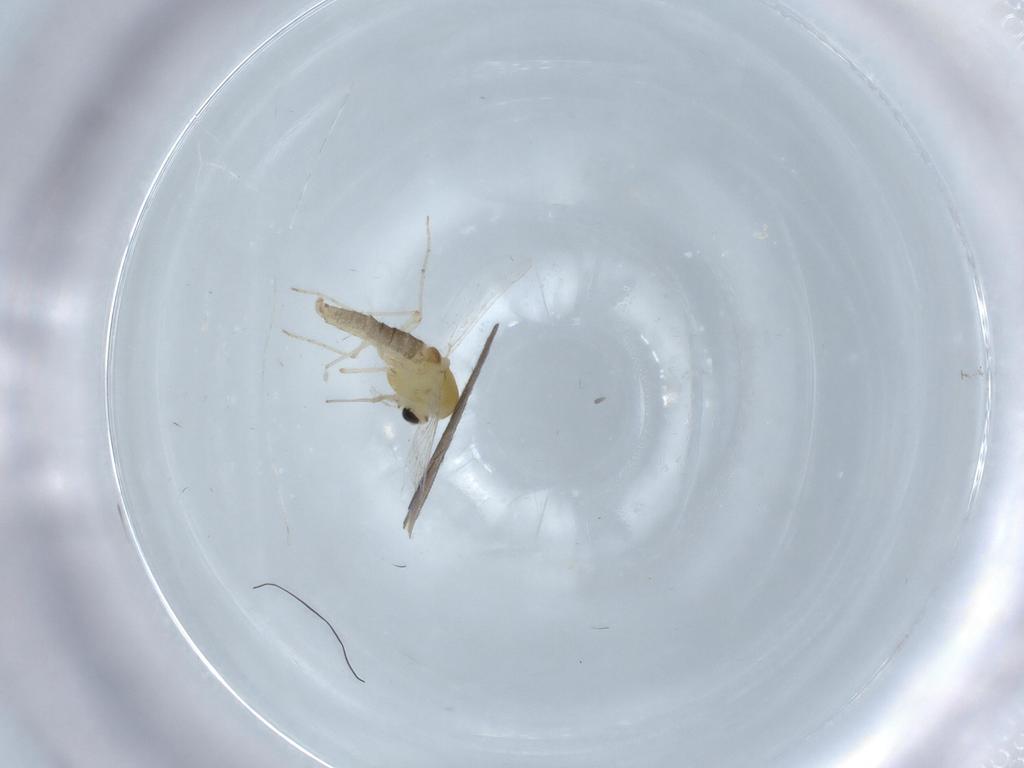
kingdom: Animalia
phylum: Arthropoda
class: Insecta
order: Diptera
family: Chironomidae
